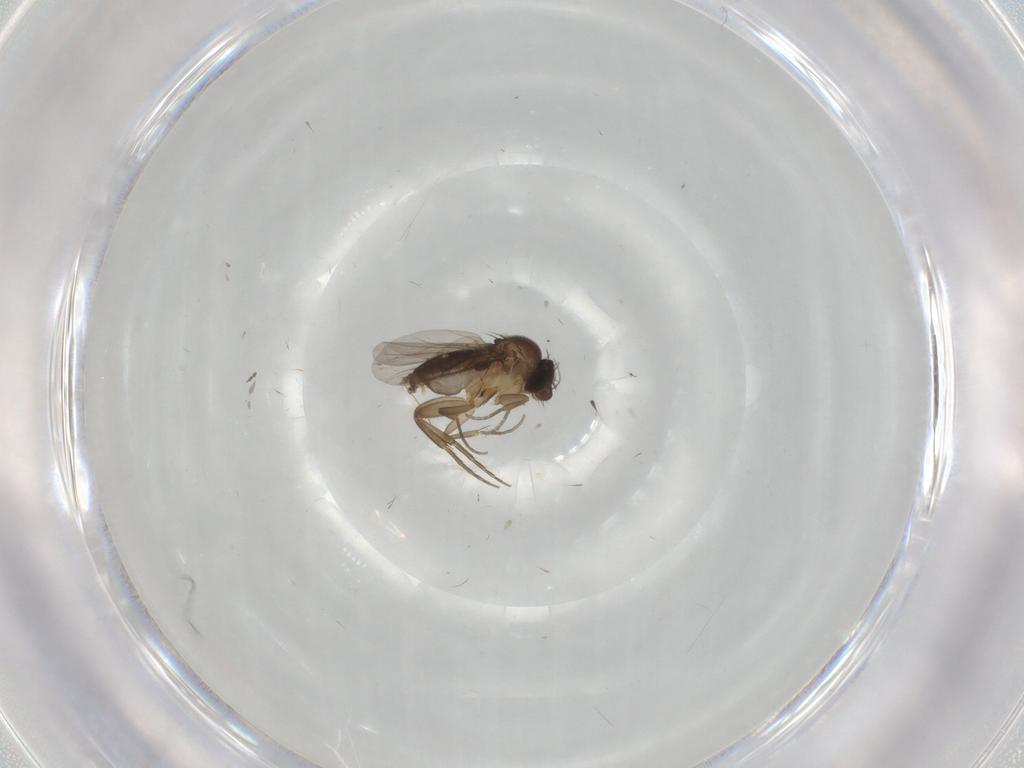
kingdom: Animalia
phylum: Arthropoda
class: Insecta
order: Diptera
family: Phoridae
